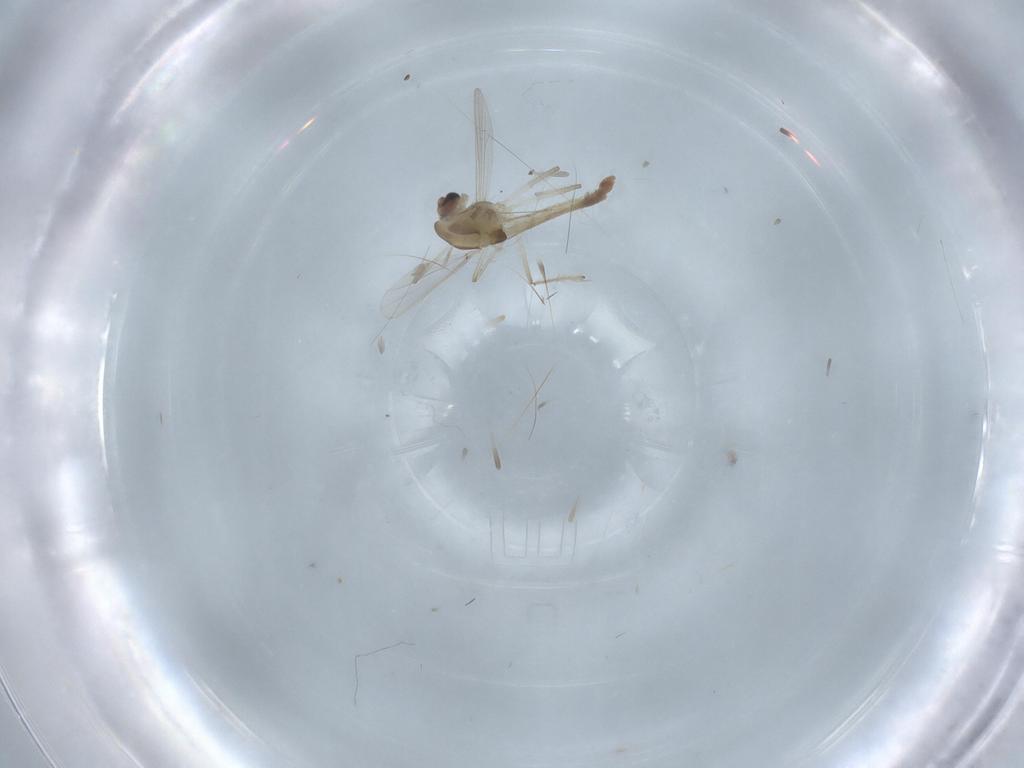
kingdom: Animalia
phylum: Arthropoda
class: Insecta
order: Diptera
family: Chironomidae
